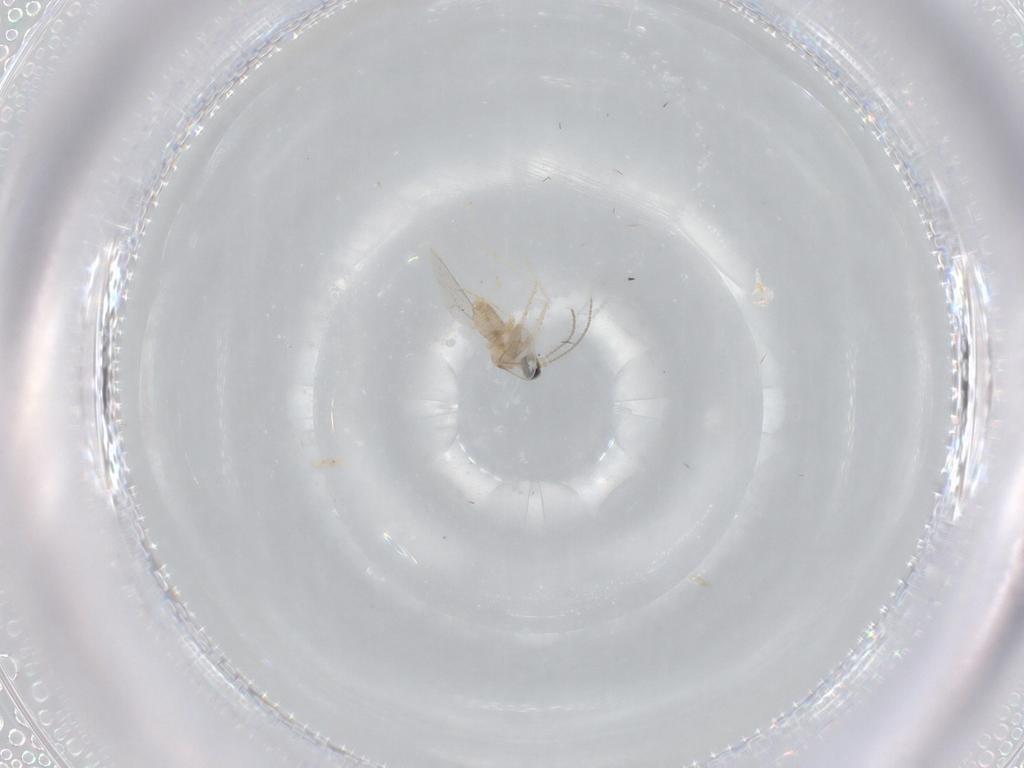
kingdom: Animalia
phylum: Arthropoda
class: Insecta
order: Diptera
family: Cecidomyiidae
